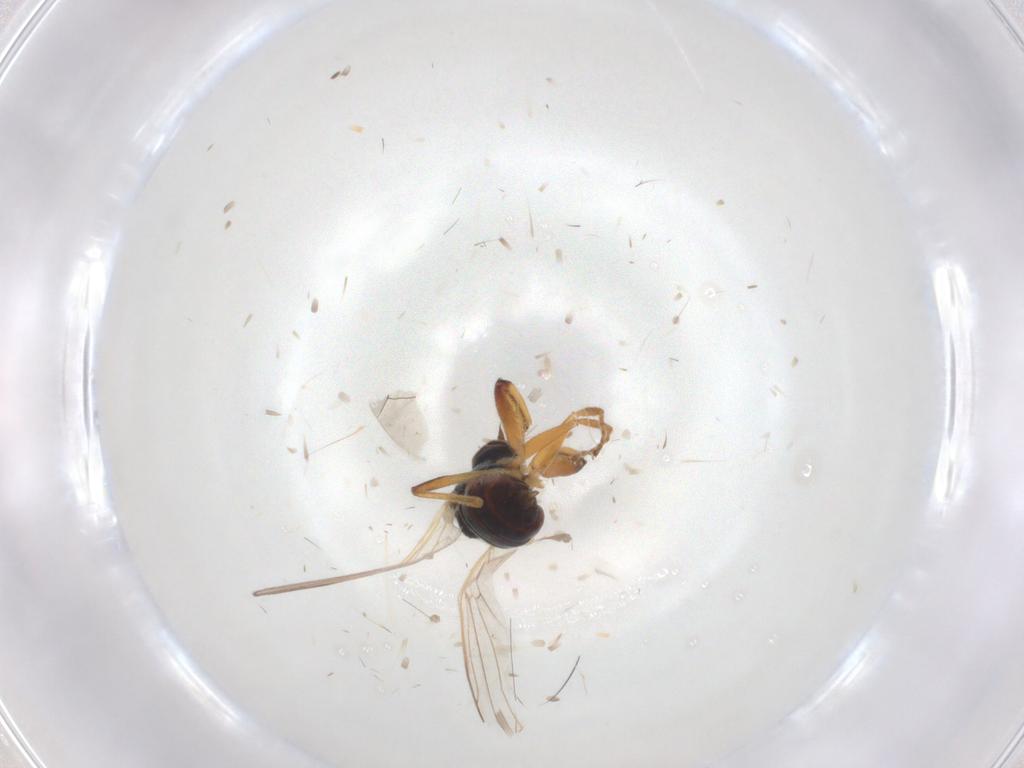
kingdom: Animalia
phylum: Arthropoda
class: Insecta
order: Diptera
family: Hybotidae
